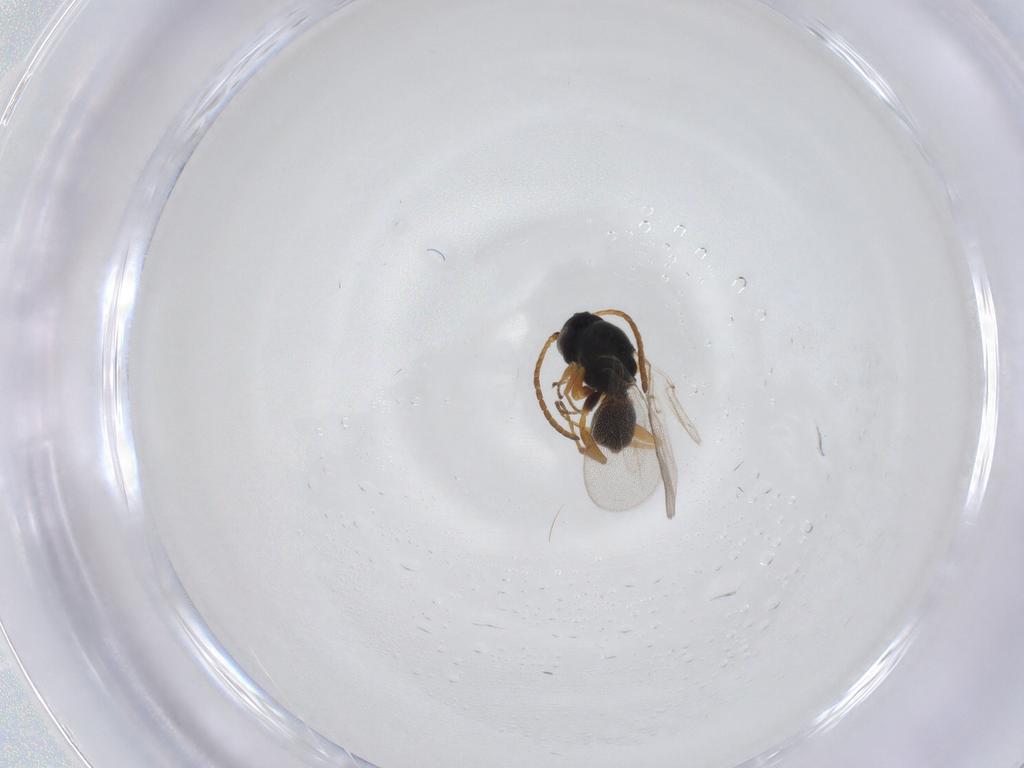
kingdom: Animalia
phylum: Arthropoda
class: Insecta
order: Hymenoptera
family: Cynipidae
